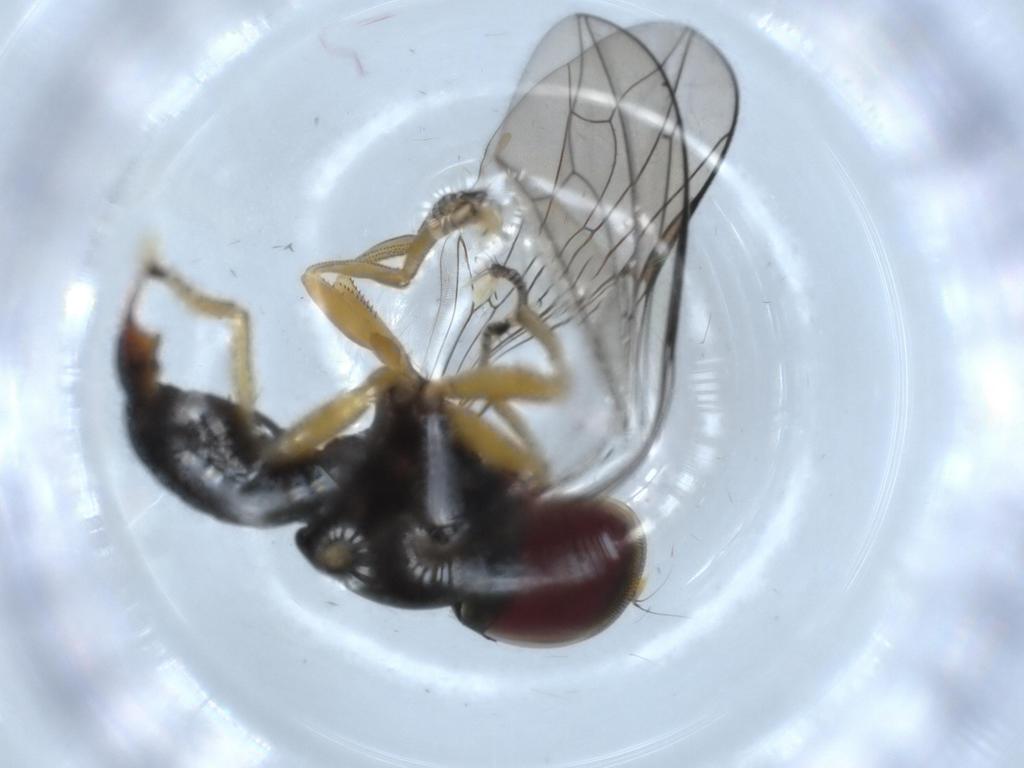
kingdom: Animalia
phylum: Arthropoda
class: Insecta
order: Diptera
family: Pipunculidae
